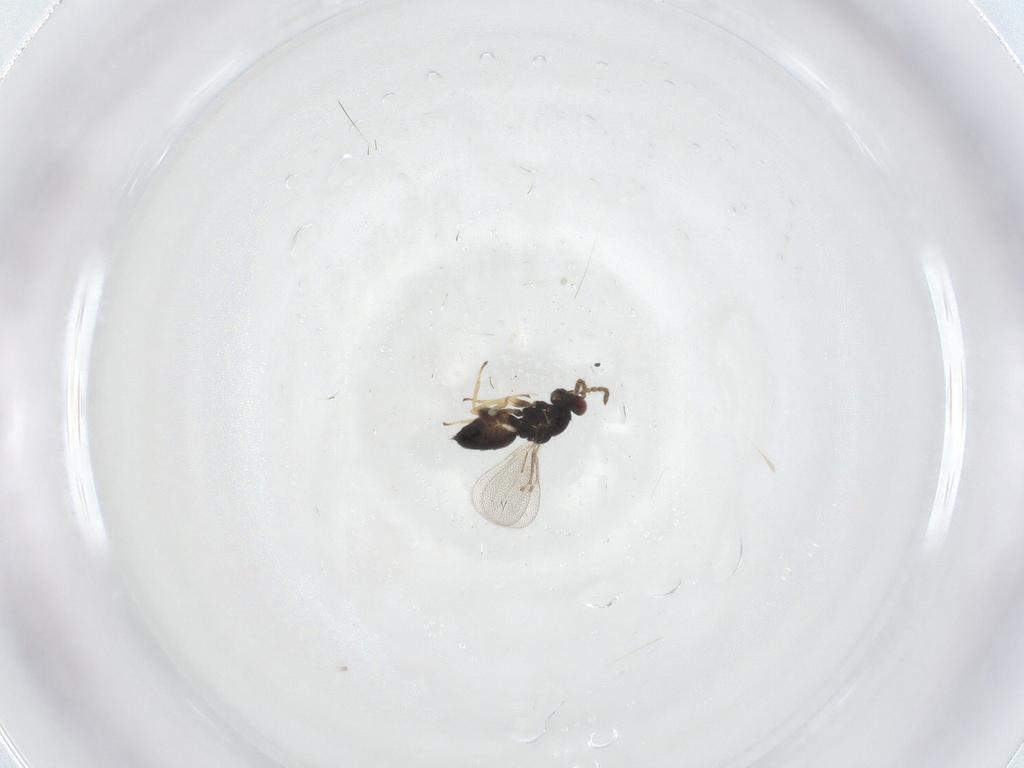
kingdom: Animalia
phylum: Arthropoda
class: Insecta
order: Hymenoptera
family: Eulophidae
